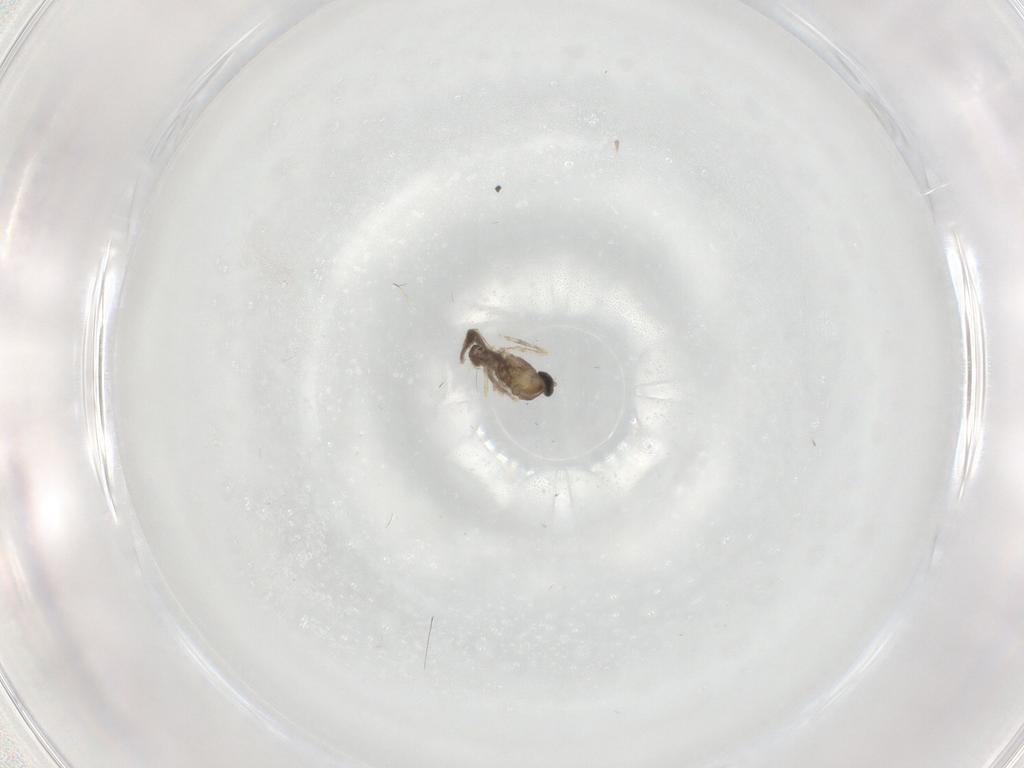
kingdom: Animalia
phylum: Arthropoda
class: Insecta
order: Diptera
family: Cecidomyiidae
